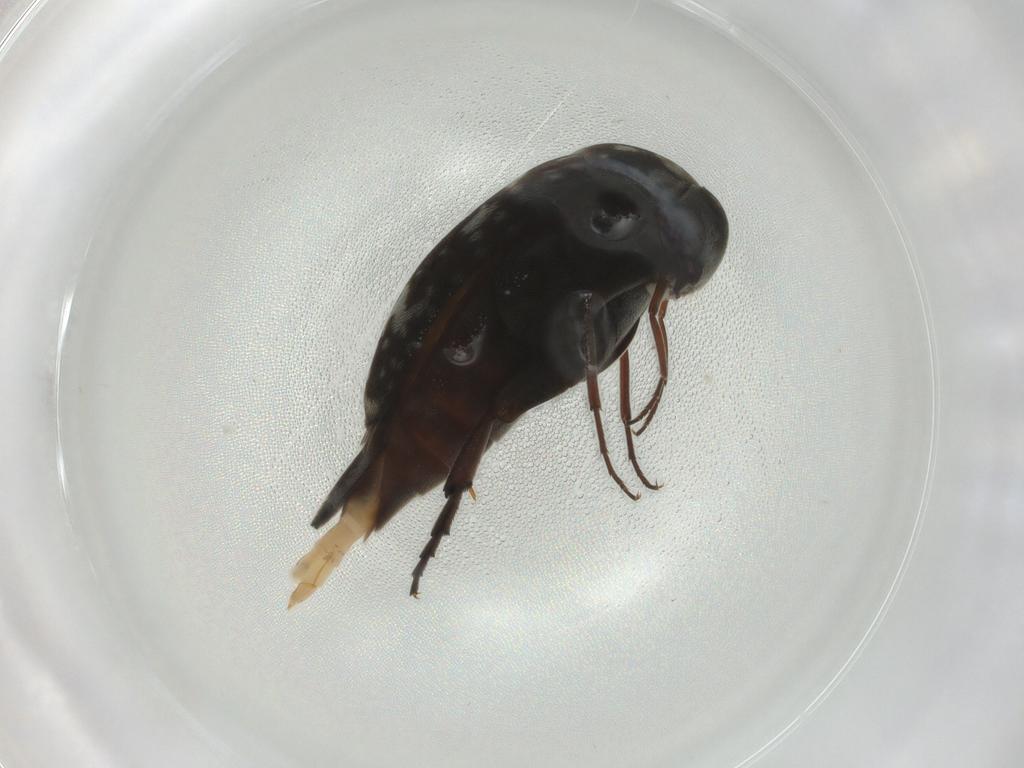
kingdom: Animalia
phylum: Arthropoda
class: Insecta
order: Coleoptera
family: Mordellidae
